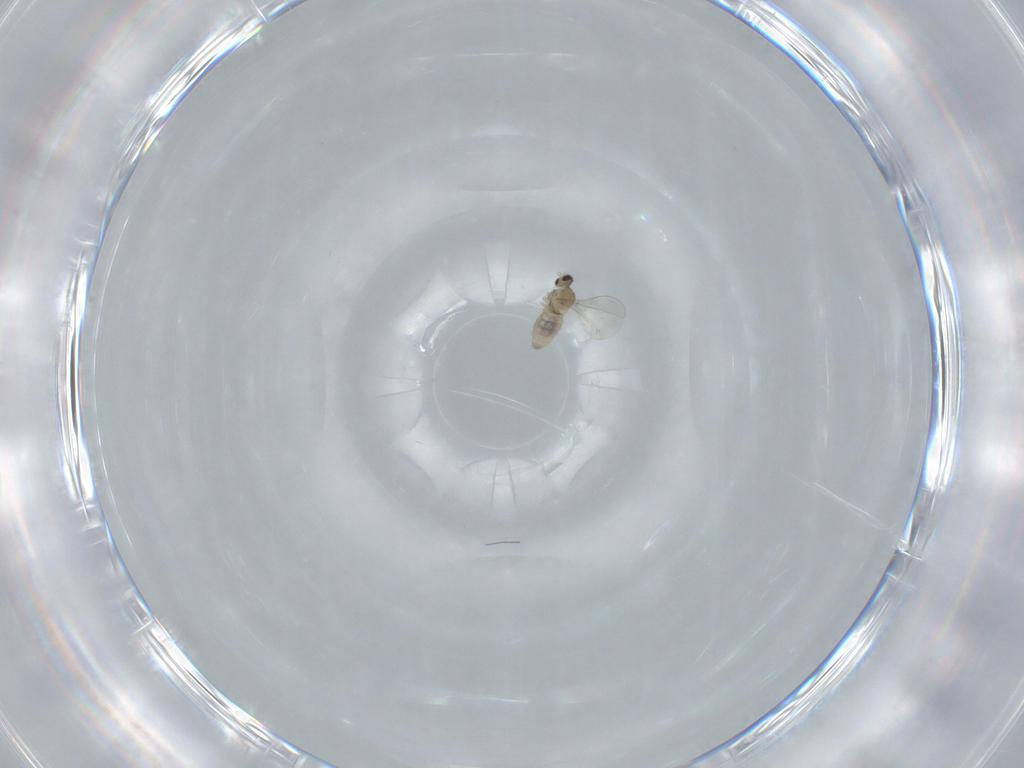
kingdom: Animalia
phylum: Arthropoda
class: Insecta
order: Diptera
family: Cecidomyiidae
